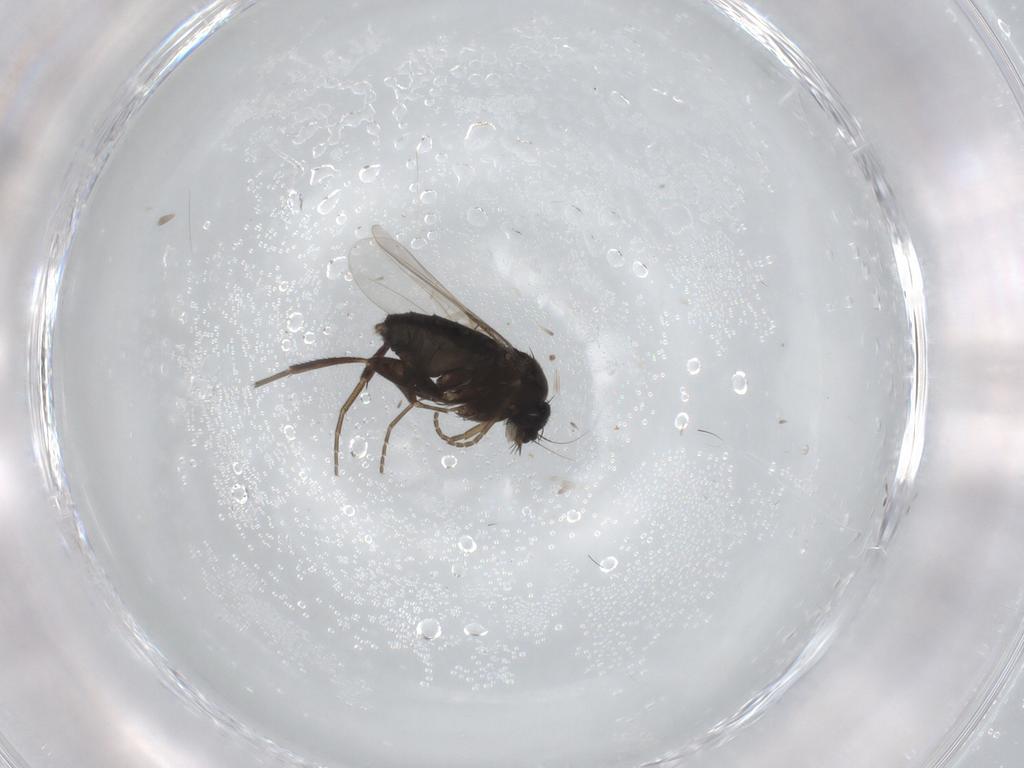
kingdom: Animalia
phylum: Arthropoda
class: Insecta
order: Diptera
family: Phoridae
